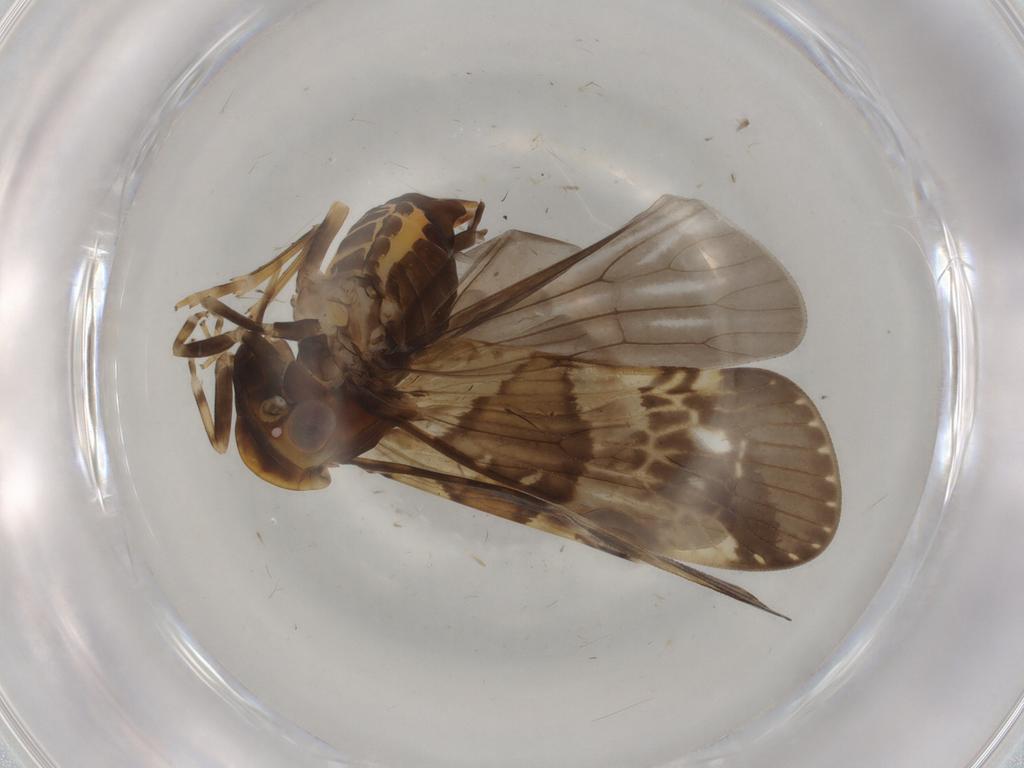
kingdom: Animalia
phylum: Arthropoda
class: Insecta
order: Hemiptera
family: Cixiidae
